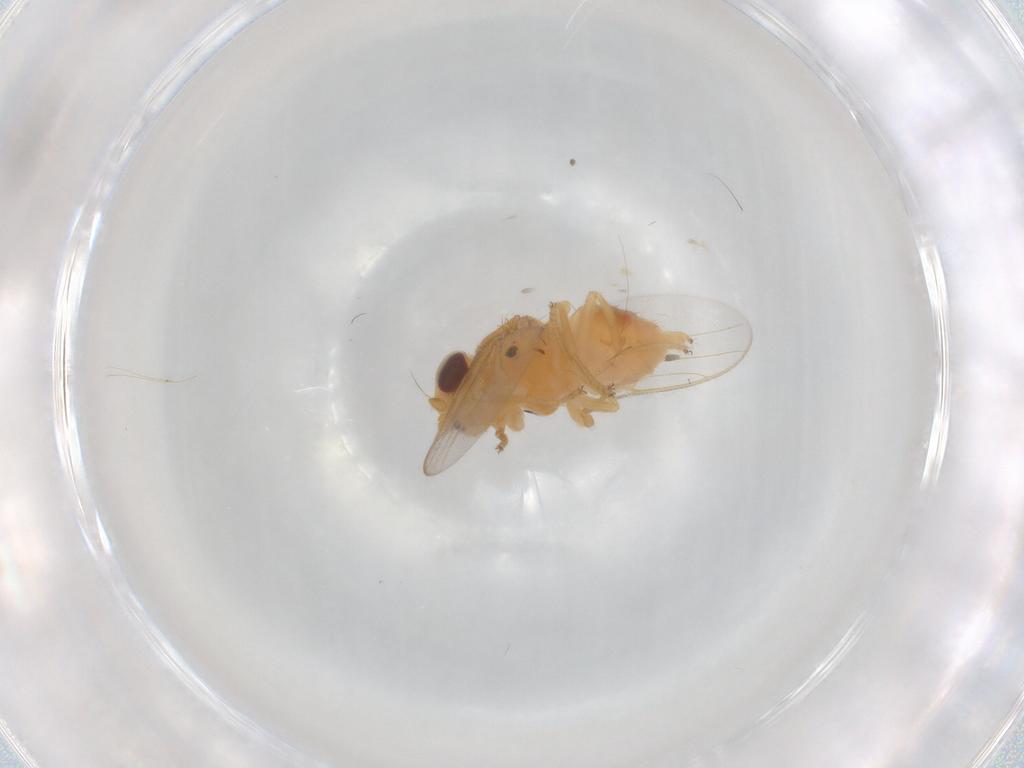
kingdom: Animalia
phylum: Arthropoda
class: Insecta
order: Diptera
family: Chloropidae
